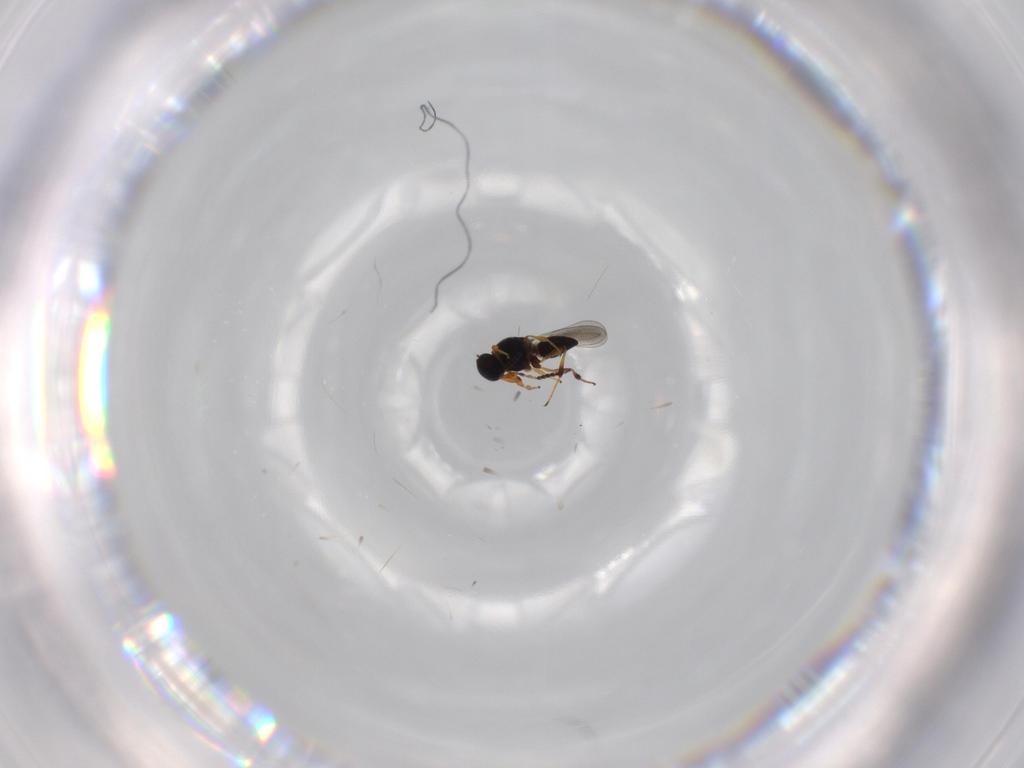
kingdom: Animalia
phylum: Arthropoda
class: Insecta
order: Hymenoptera
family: Platygastridae
